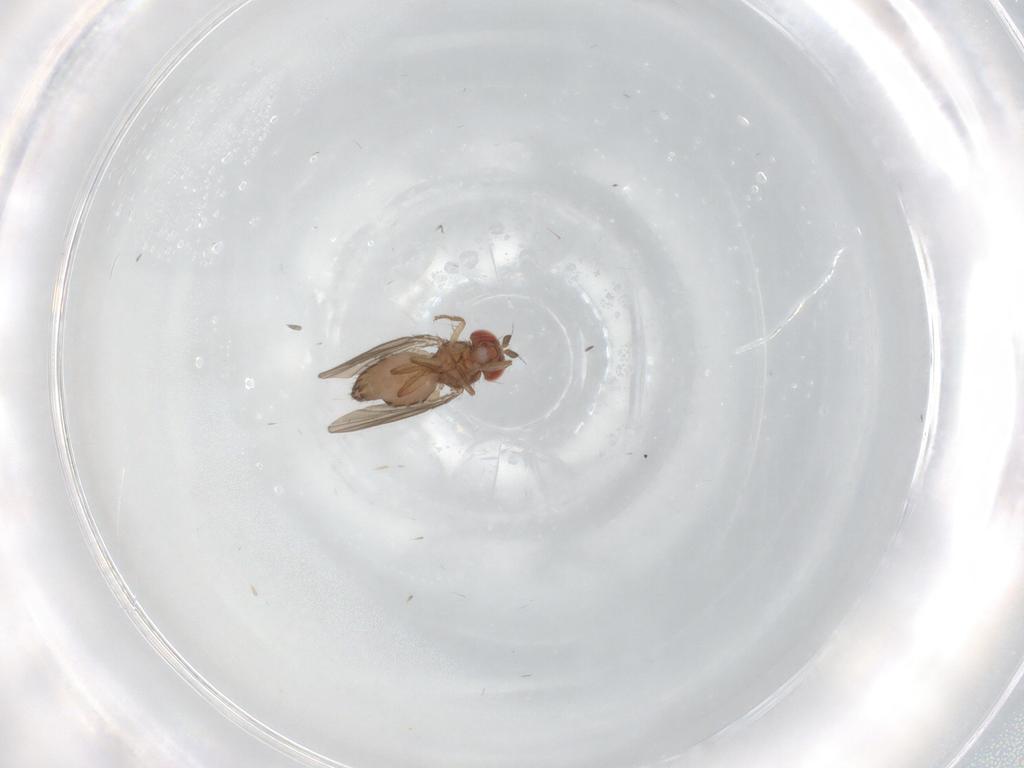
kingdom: Animalia
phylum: Arthropoda
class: Insecta
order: Diptera
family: Drosophilidae
